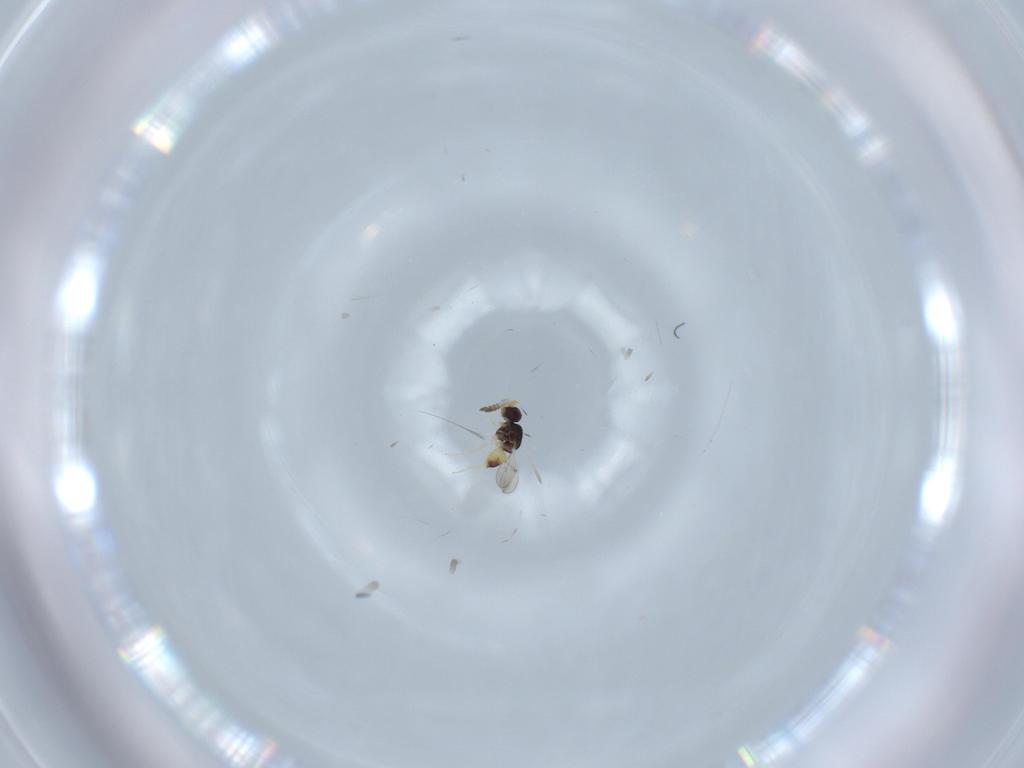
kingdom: Animalia
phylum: Arthropoda
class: Insecta
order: Hymenoptera
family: Ceraphronidae
